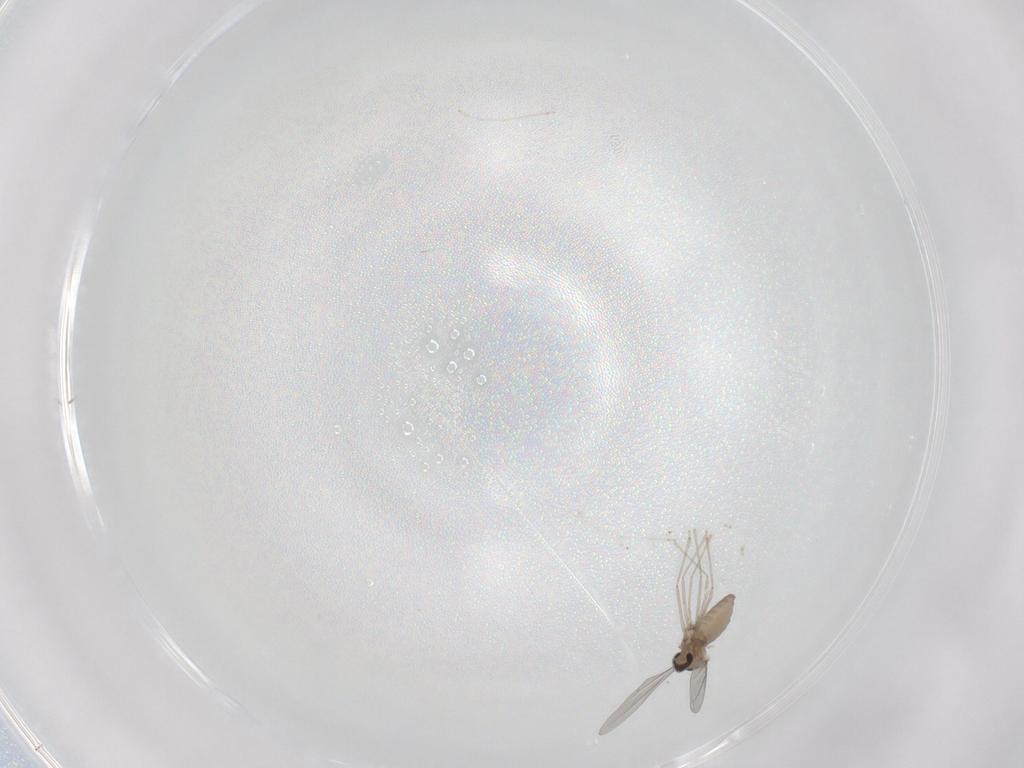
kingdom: Animalia
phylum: Arthropoda
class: Insecta
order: Diptera
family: Cecidomyiidae
